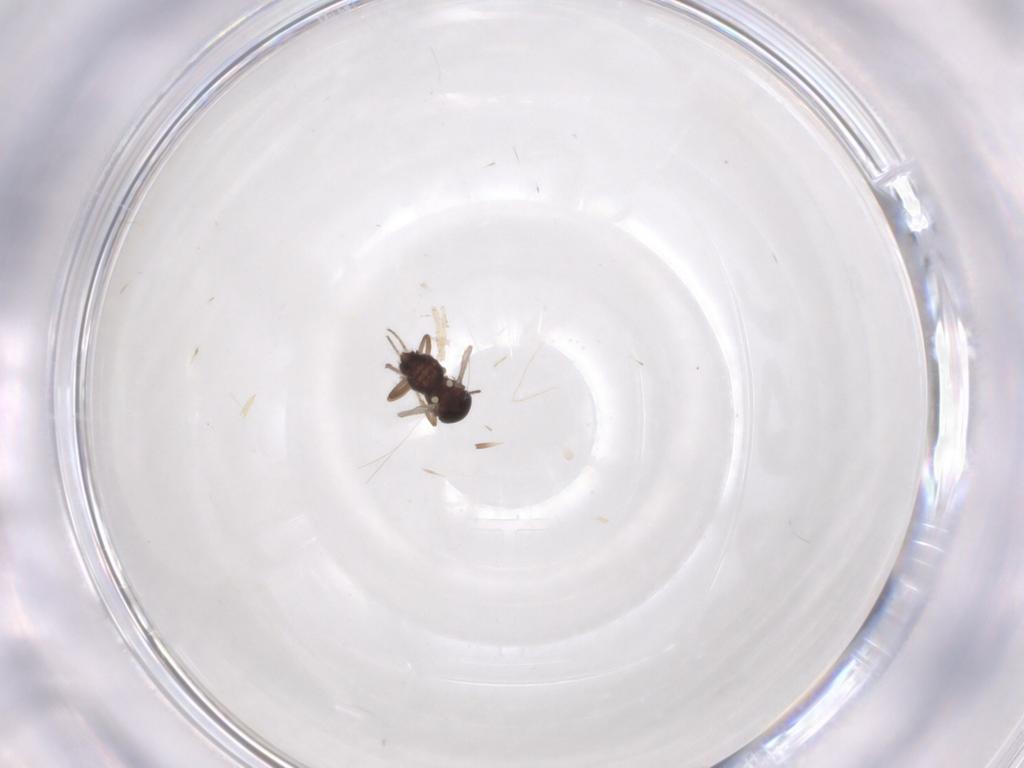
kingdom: Animalia
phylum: Arthropoda
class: Insecta
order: Diptera
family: Ceratopogonidae
